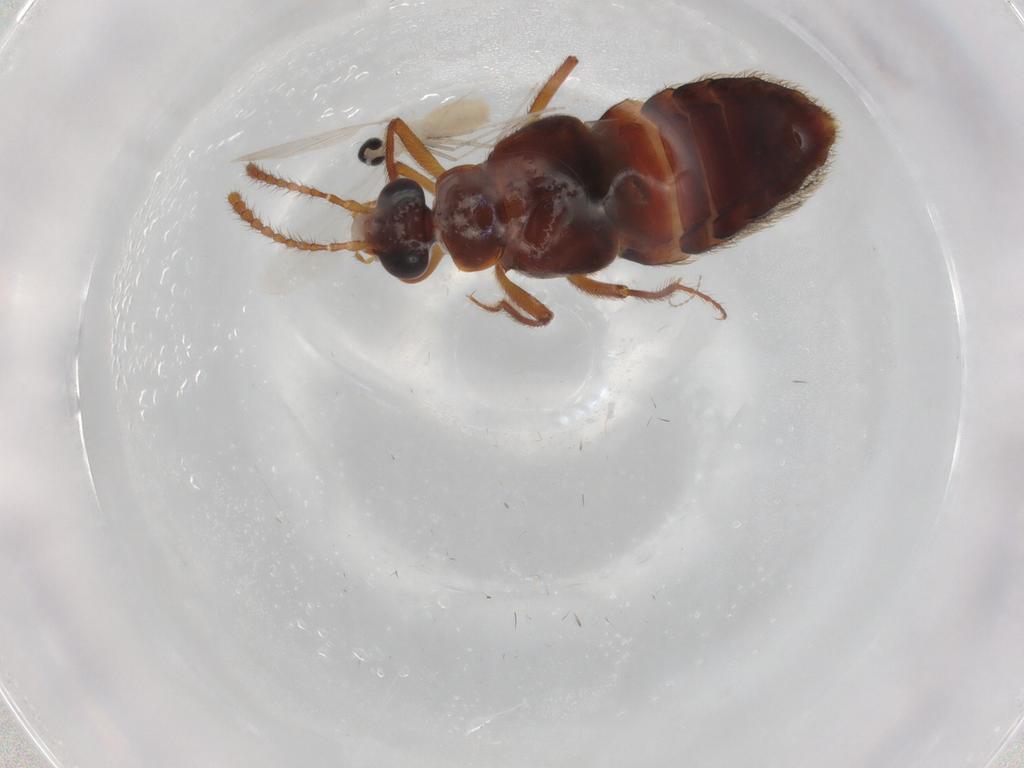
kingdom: Animalia
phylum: Arthropoda
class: Insecta
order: Diptera
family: Cecidomyiidae
